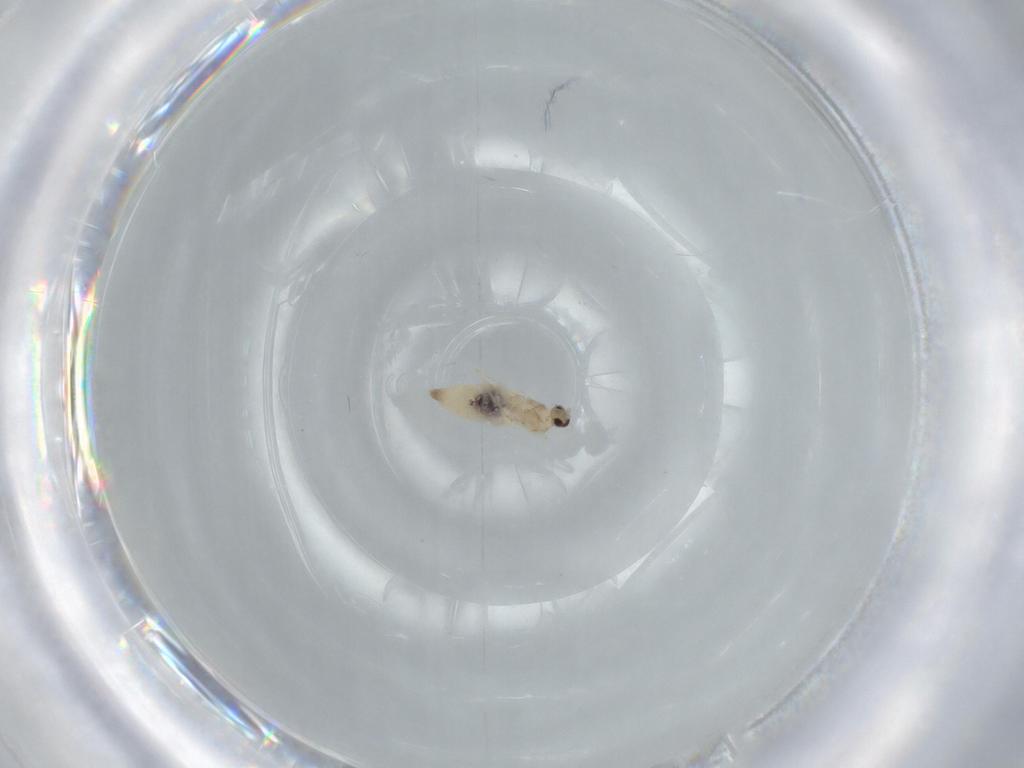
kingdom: Animalia
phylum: Arthropoda
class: Insecta
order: Diptera
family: Cecidomyiidae
